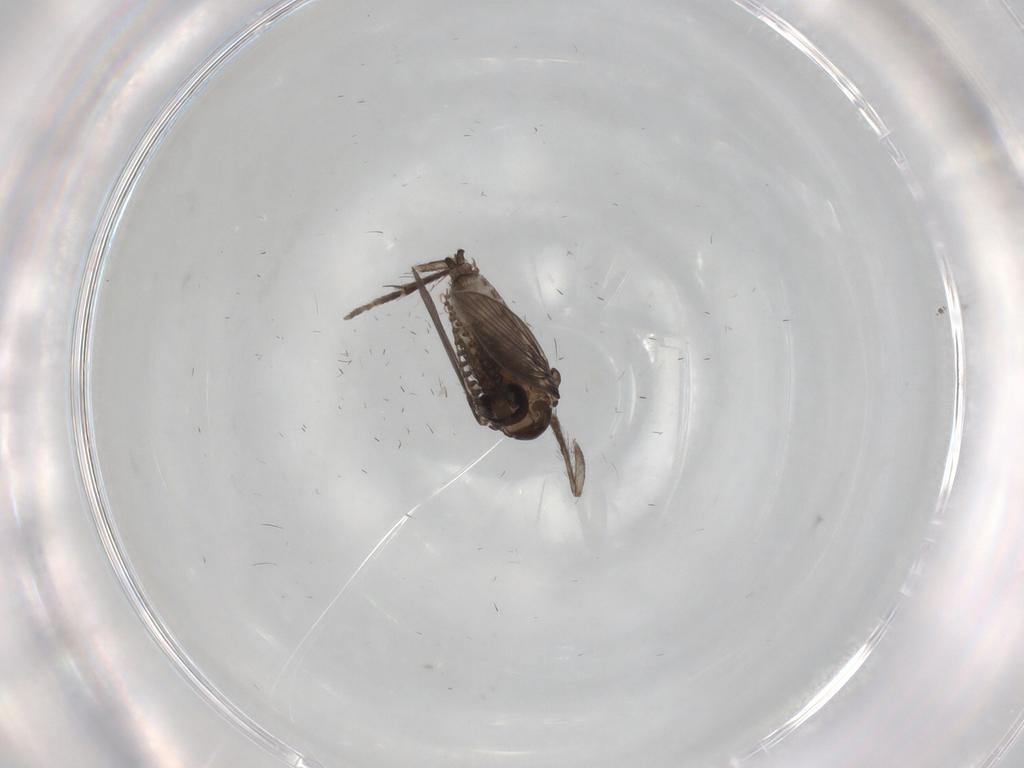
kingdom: Animalia
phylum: Arthropoda
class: Insecta
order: Diptera
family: Psychodidae
